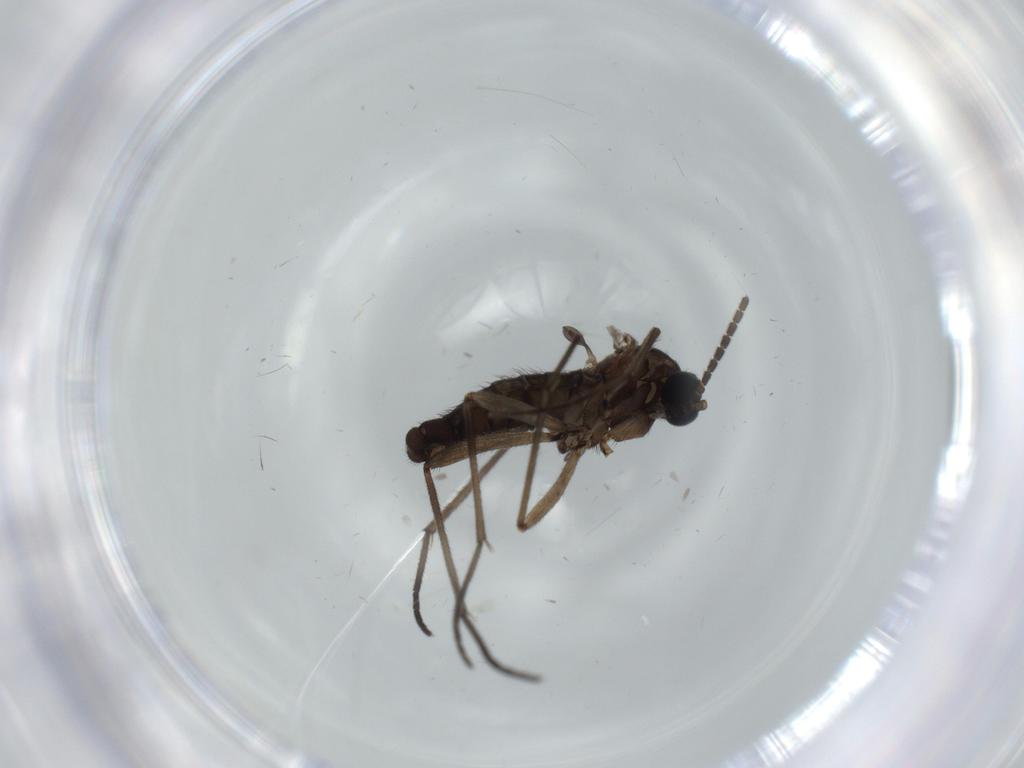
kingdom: Animalia
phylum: Arthropoda
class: Insecta
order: Diptera
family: Sciaridae
